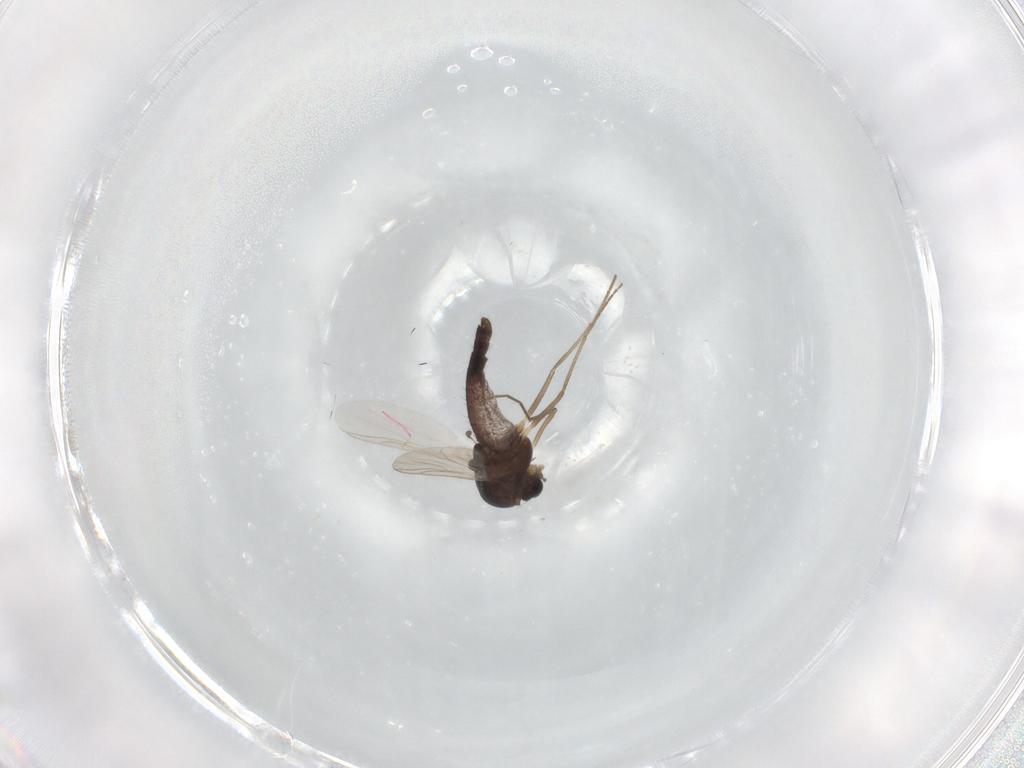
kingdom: Animalia
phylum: Arthropoda
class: Insecta
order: Diptera
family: Chironomidae
